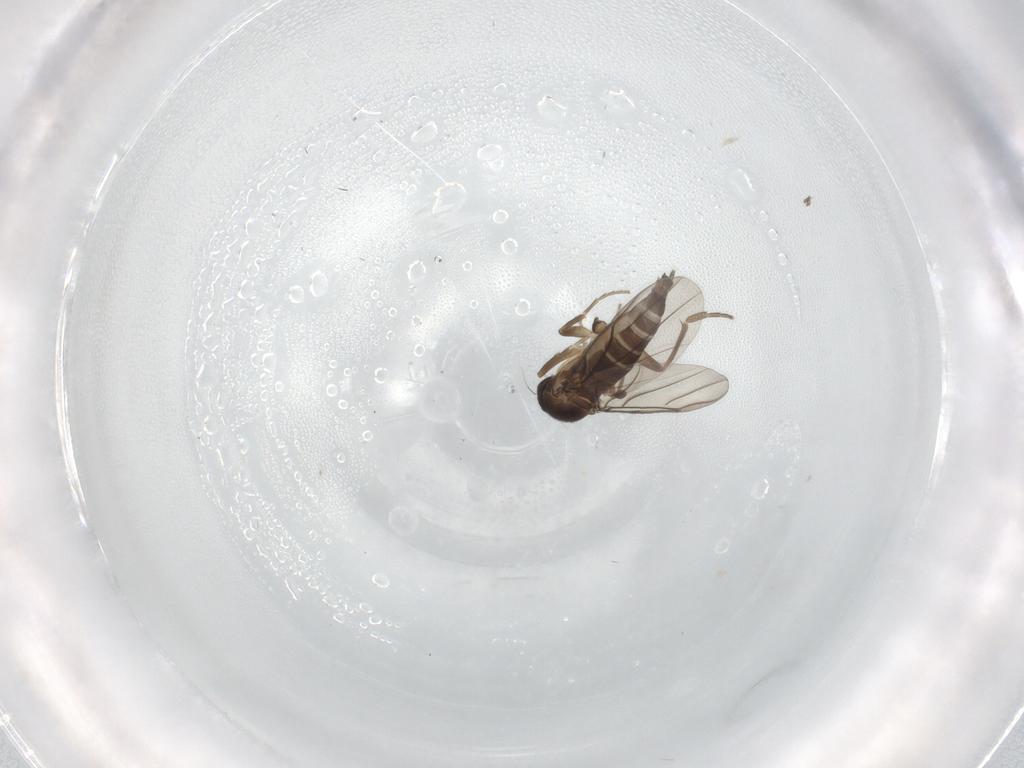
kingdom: Animalia
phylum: Arthropoda
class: Insecta
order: Diptera
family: Phoridae
